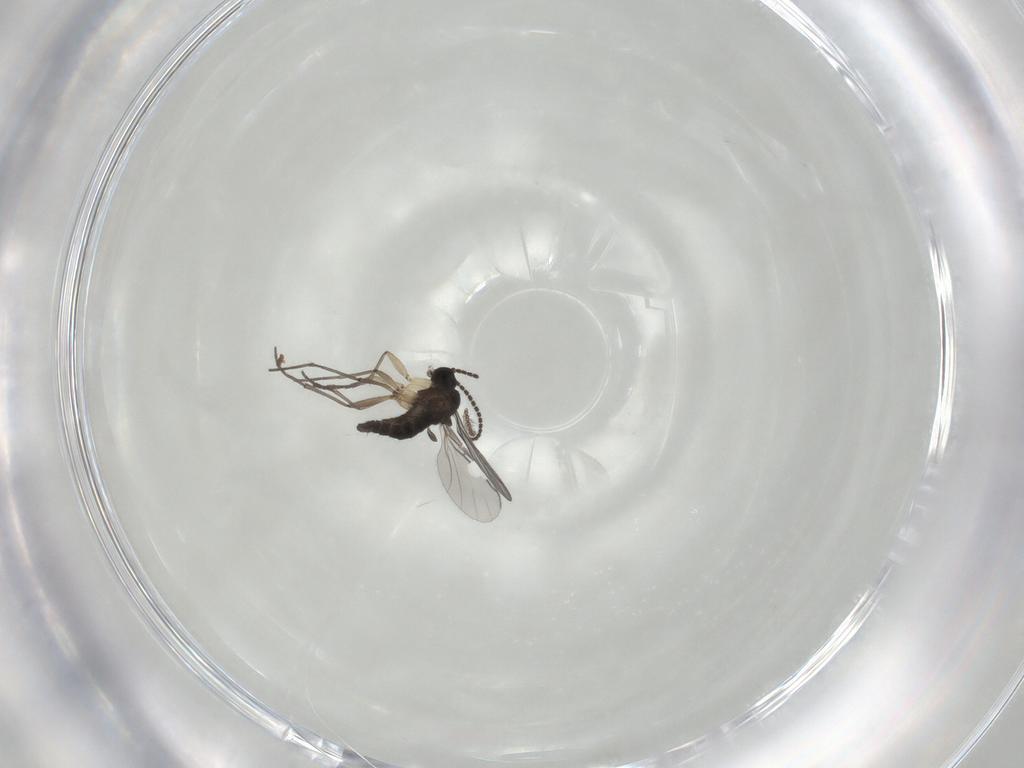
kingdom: Animalia
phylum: Arthropoda
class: Insecta
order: Diptera
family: Sciaridae
